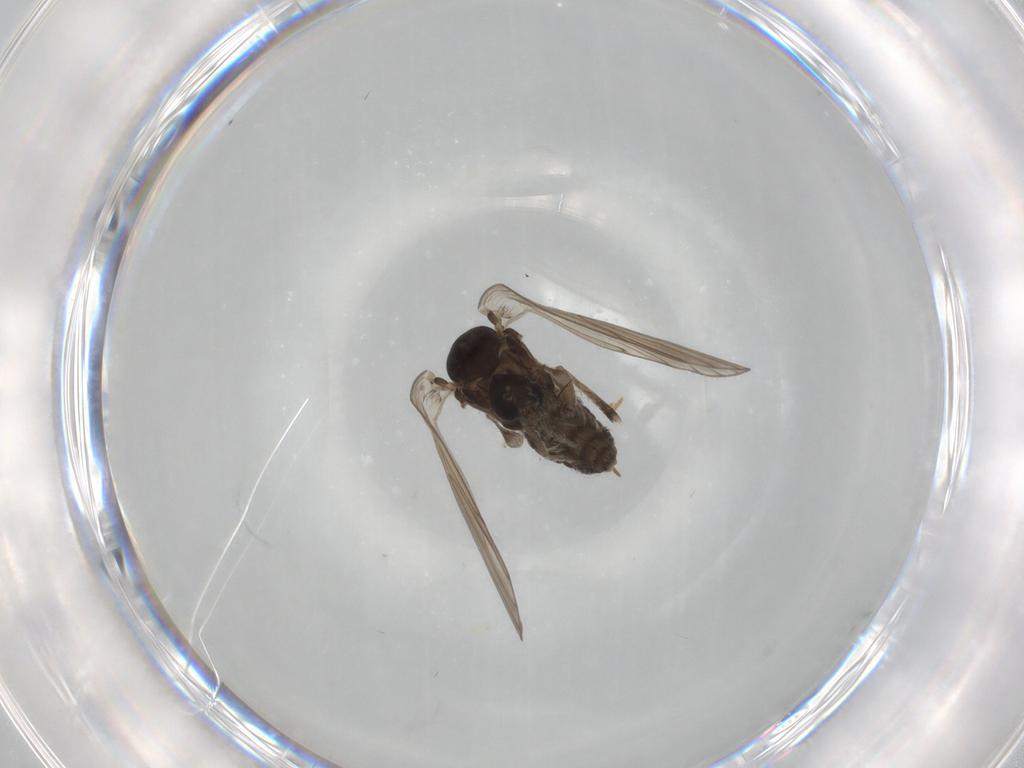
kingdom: Animalia
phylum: Arthropoda
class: Insecta
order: Diptera
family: Psychodidae
